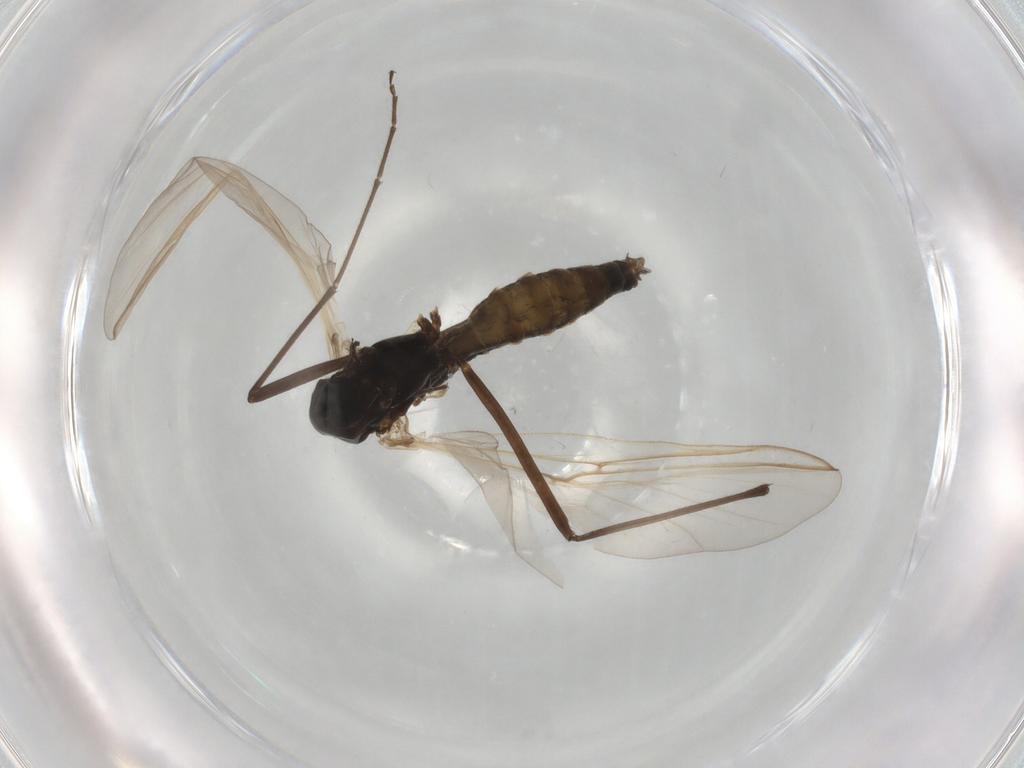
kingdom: Animalia
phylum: Arthropoda
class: Insecta
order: Diptera
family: Chironomidae
